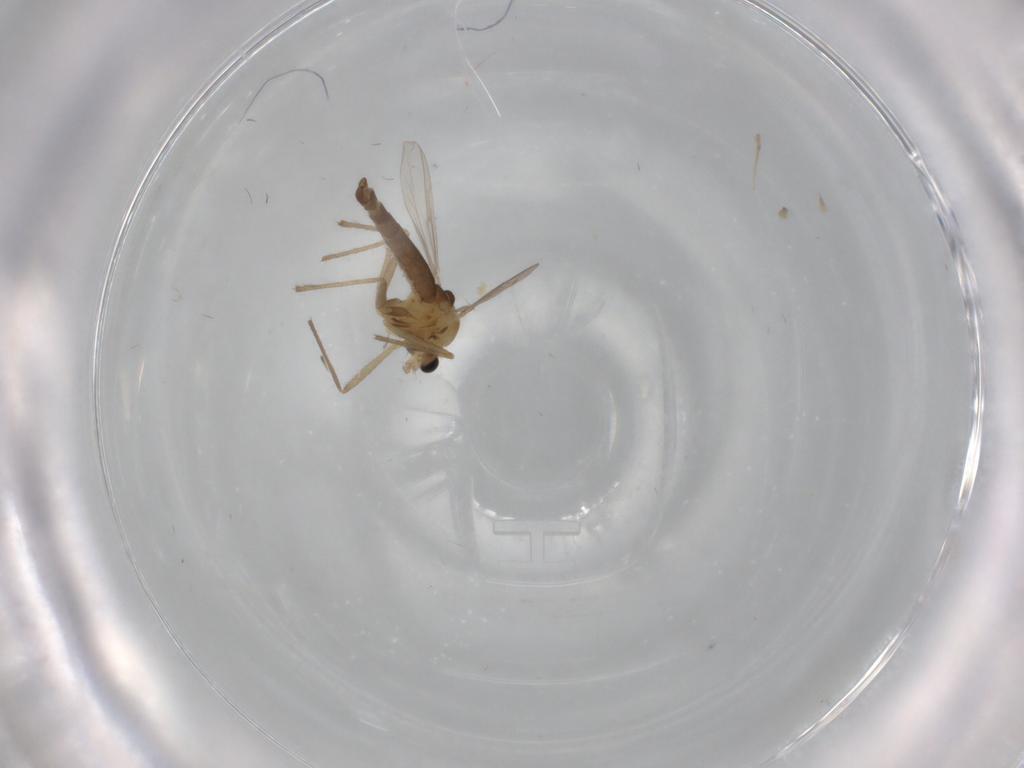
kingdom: Animalia
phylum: Arthropoda
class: Insecta
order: Diptera
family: Chironomidae
